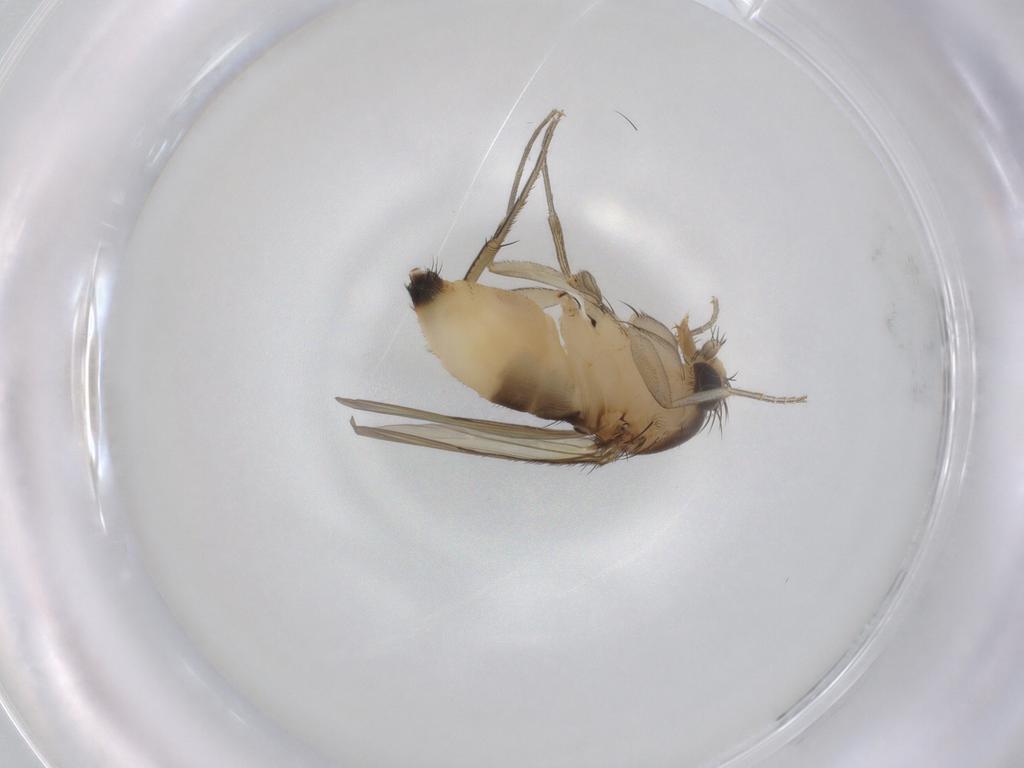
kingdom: Animalia
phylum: Arthropoda
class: Insecta
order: Diptera
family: Phoridae
